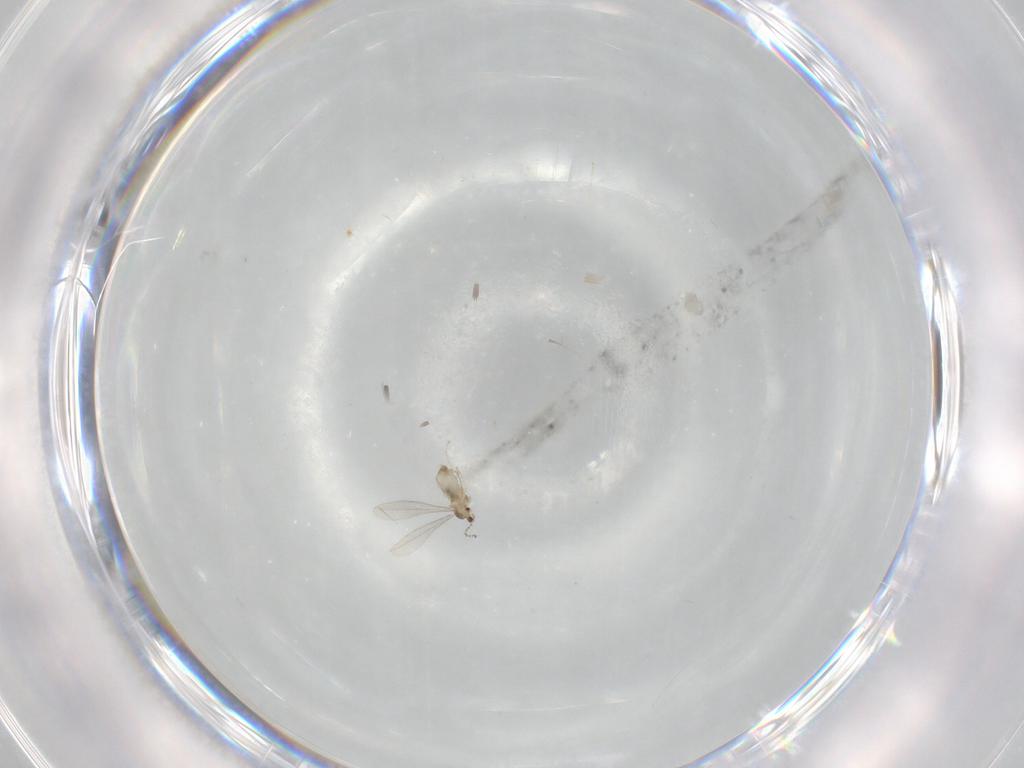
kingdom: Animalia
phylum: Arthropoda
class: Insecta
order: Diptera
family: Cecidomyiidae
